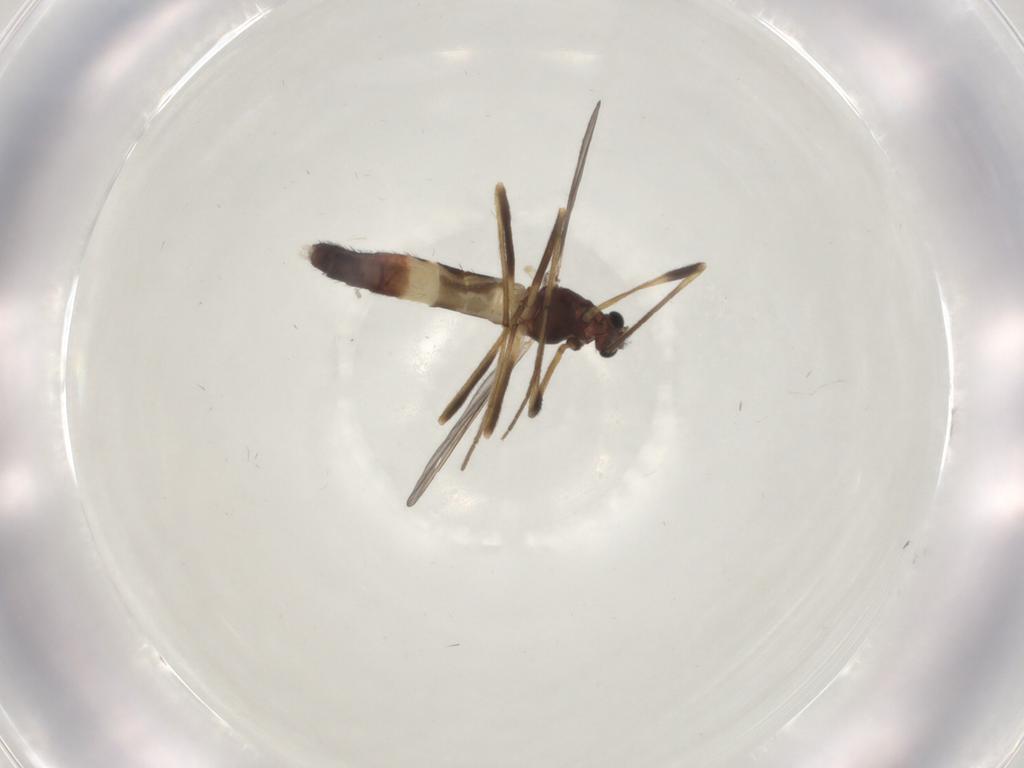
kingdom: Animalia
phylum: Arthropoda
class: Insecta
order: Diptera
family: Chironomidae
